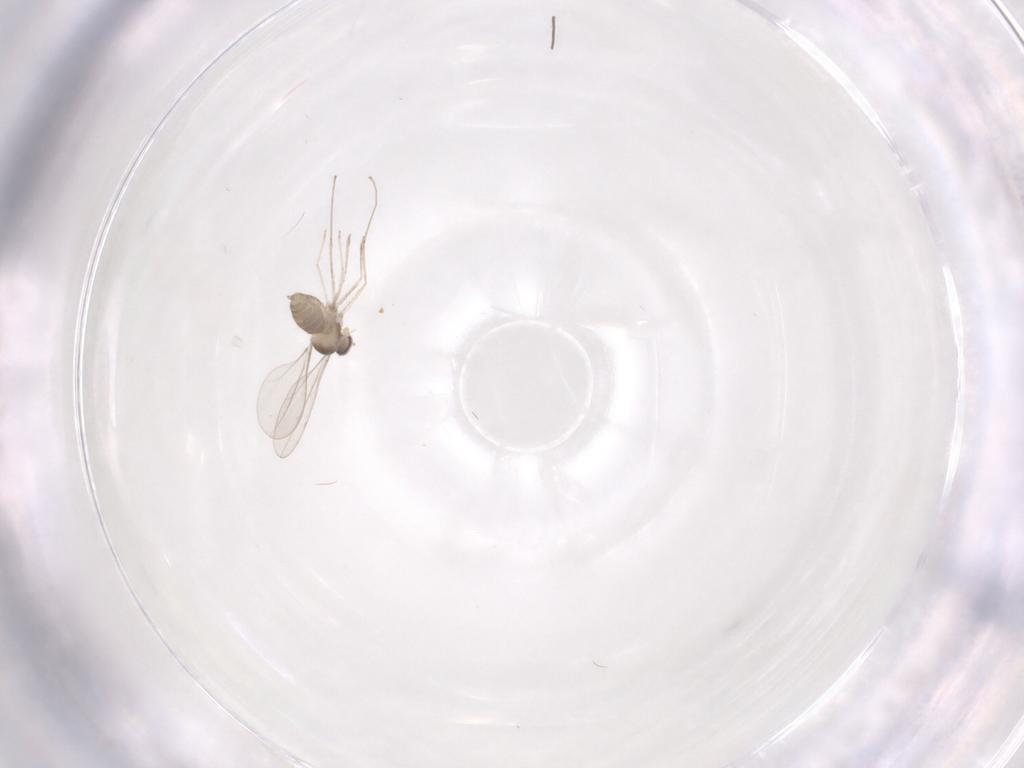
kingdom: Animalia
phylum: Arthropoda
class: Insecta
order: Diptera
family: Cecidomyiidae
